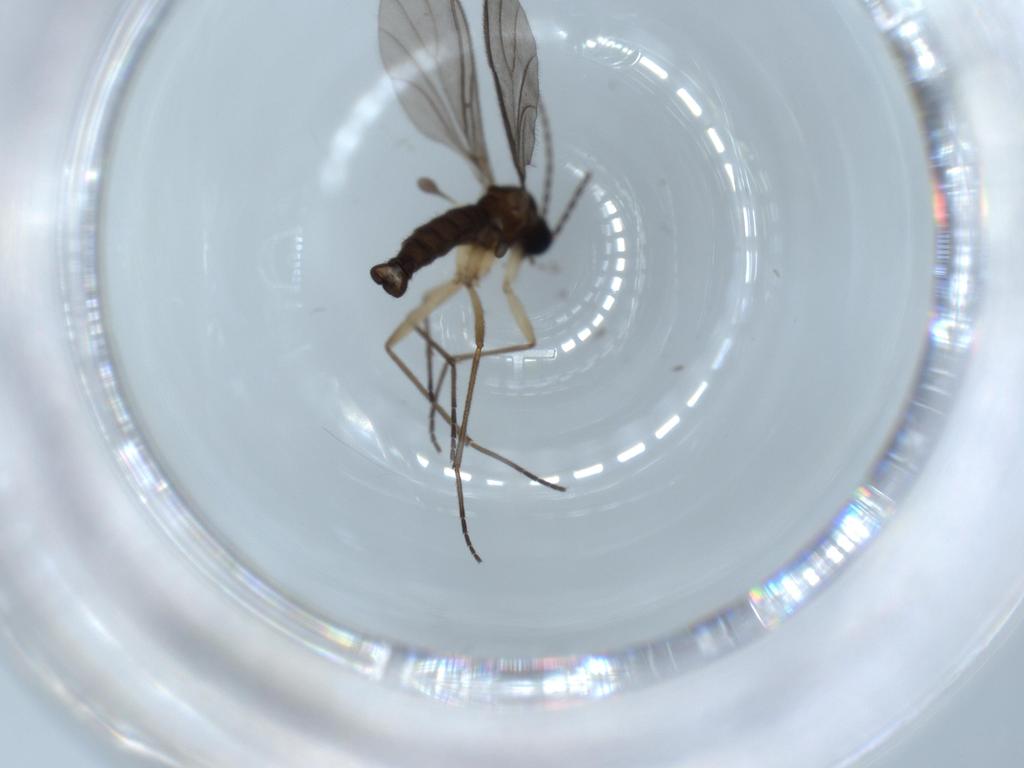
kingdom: Animalia
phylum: Arthropoda
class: Insecta
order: Diptera
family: Sciaridae
